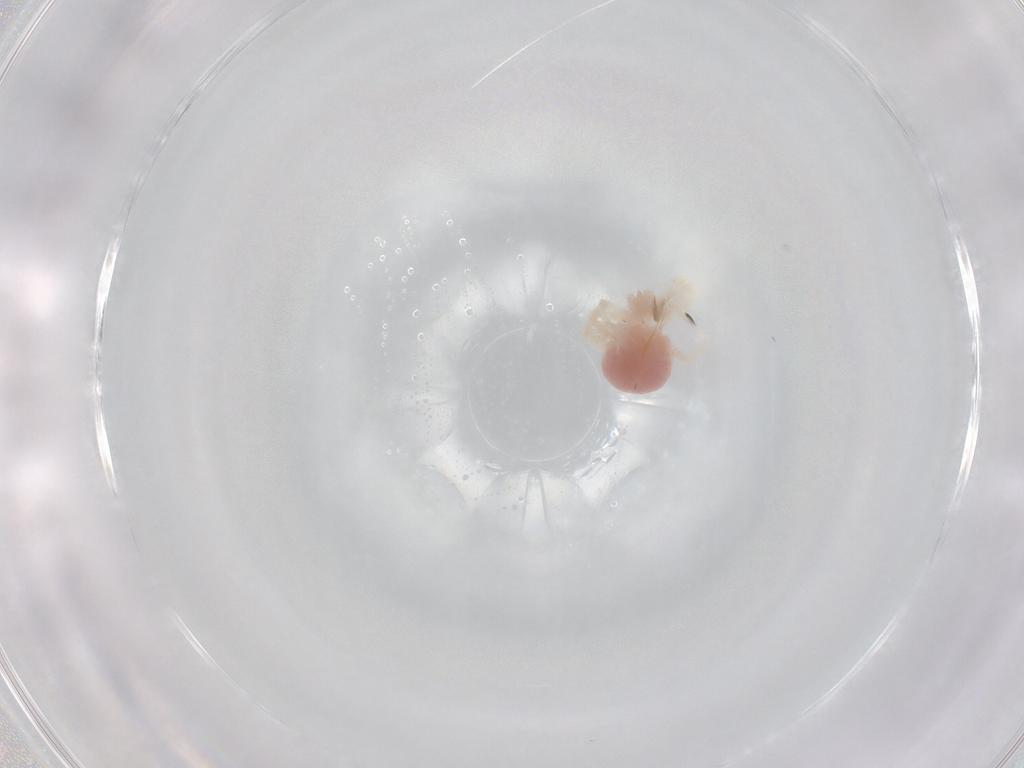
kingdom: Animalia
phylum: Arthropoda
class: Arachnida
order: Trombidiformes
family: Anystidae
